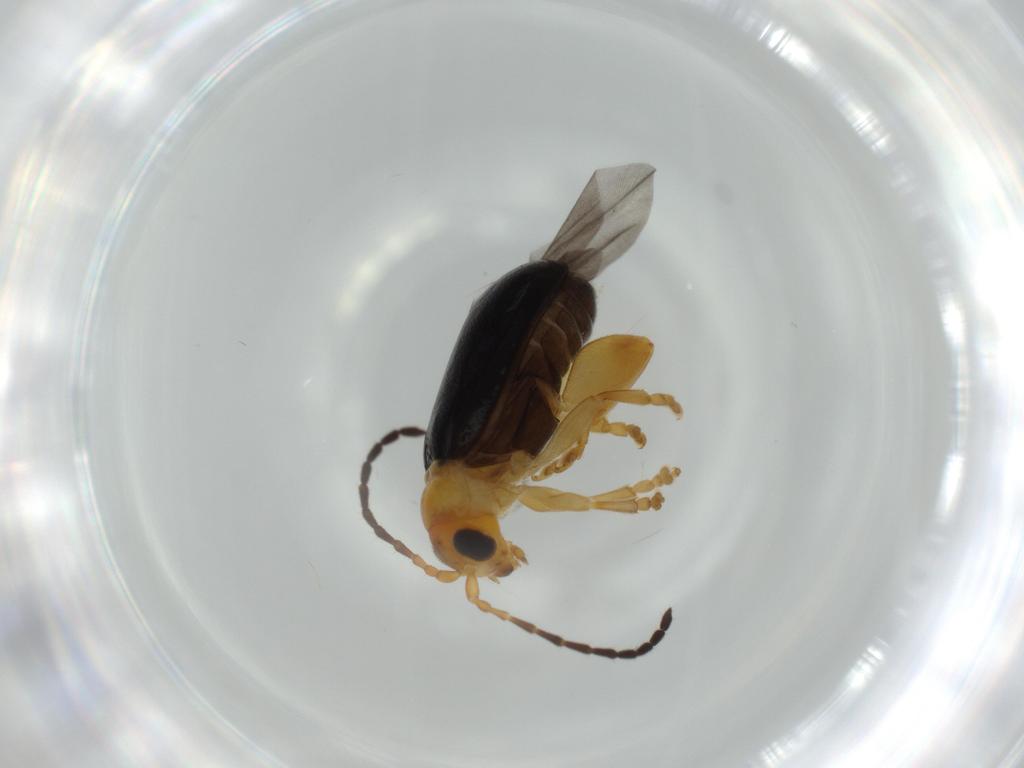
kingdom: Animalia
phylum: Arthropoda
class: Insecta
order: Coleoptera
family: Chrysomelidae
